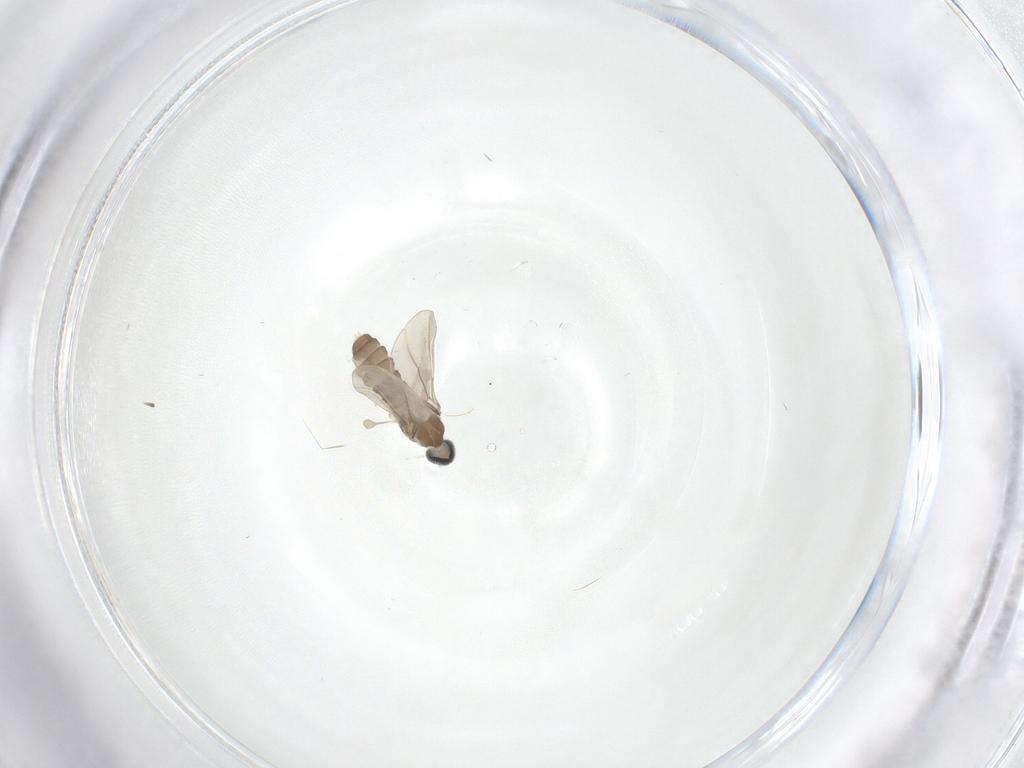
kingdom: Animalia
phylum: Arthropoda
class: Insecta
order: Diptera
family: Cecidomyiidae
